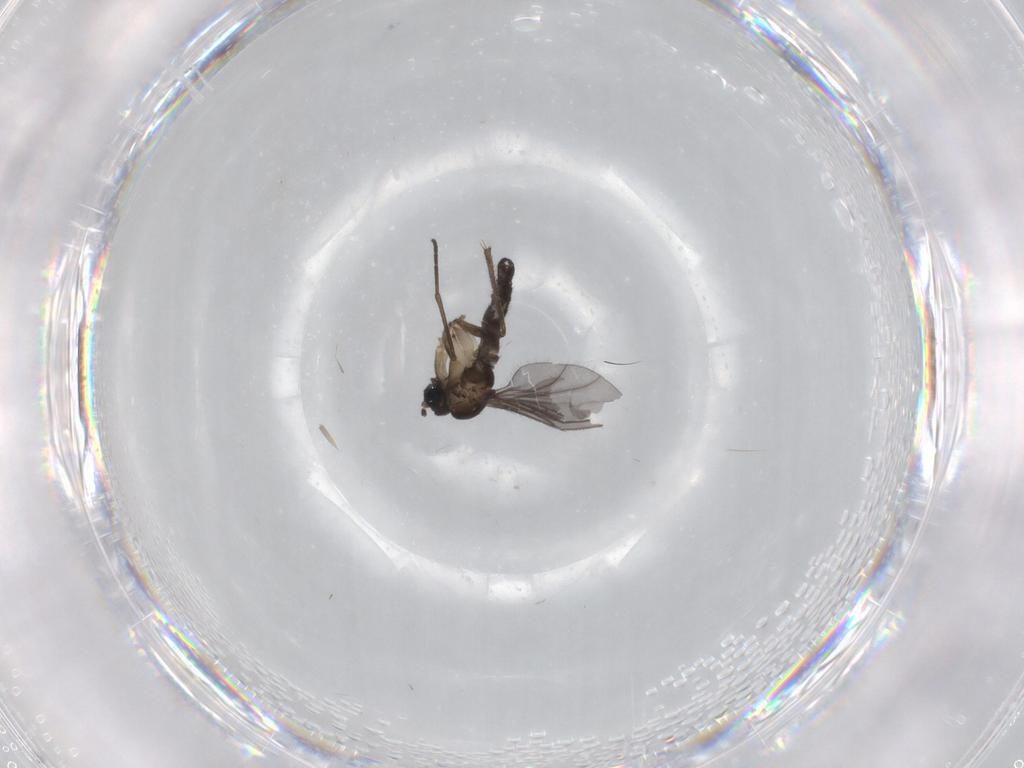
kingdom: Animalia
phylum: Arthropoda
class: Insecta
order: Diptera
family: Sciaridae
